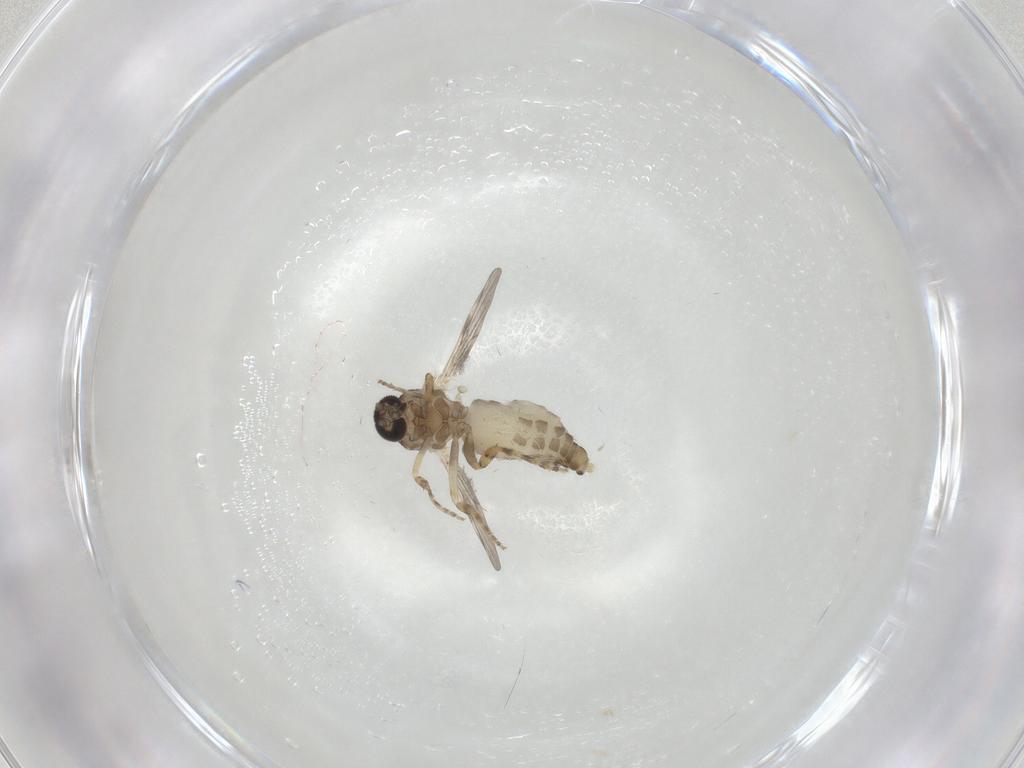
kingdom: Animalia
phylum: Arthropoda
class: Insecta
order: Diptera
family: Ceratopogonidae
